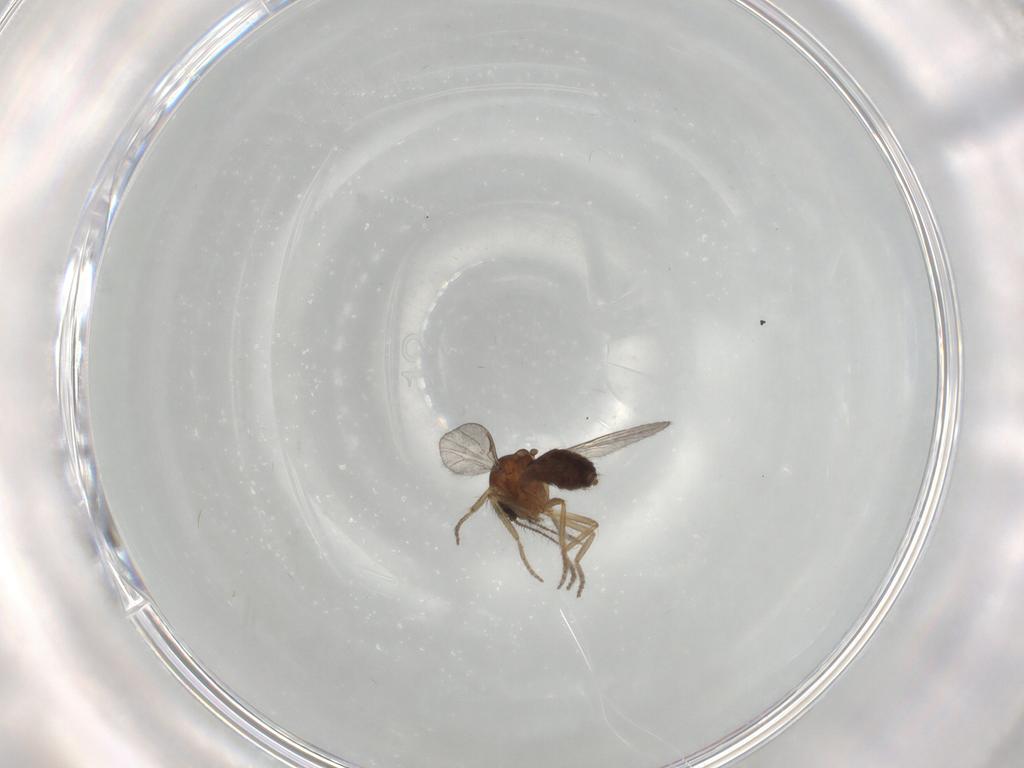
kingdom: Animalia
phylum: Arthropoda
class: Insecta
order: Diptera
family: Ceratopogonidae
